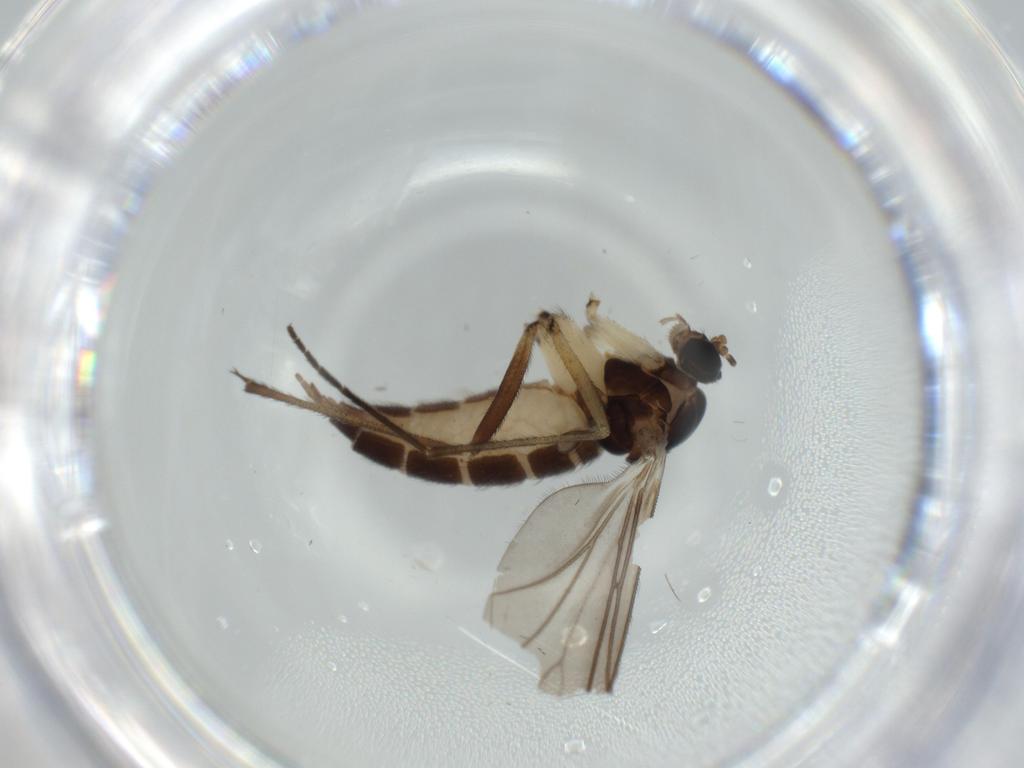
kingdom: Animalia
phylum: Arthropoda
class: Insecta
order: Diptera
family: Sciaridae
